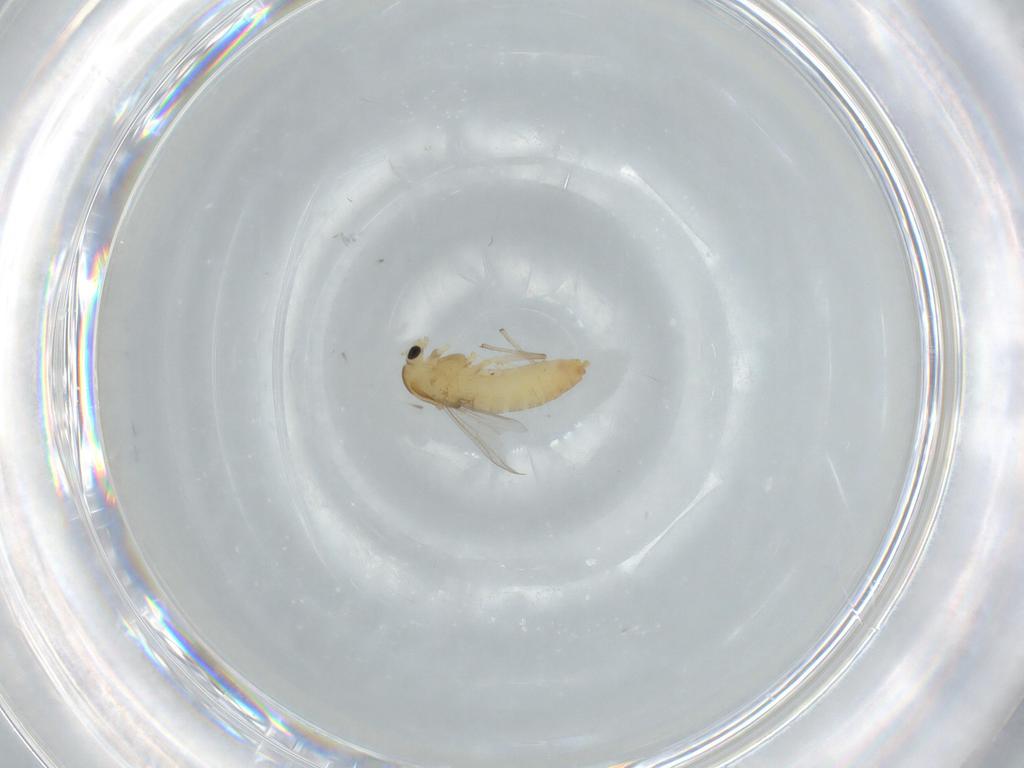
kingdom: Animalia
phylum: Arthropoda
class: Insecta
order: Diptera
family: Chironomidae
